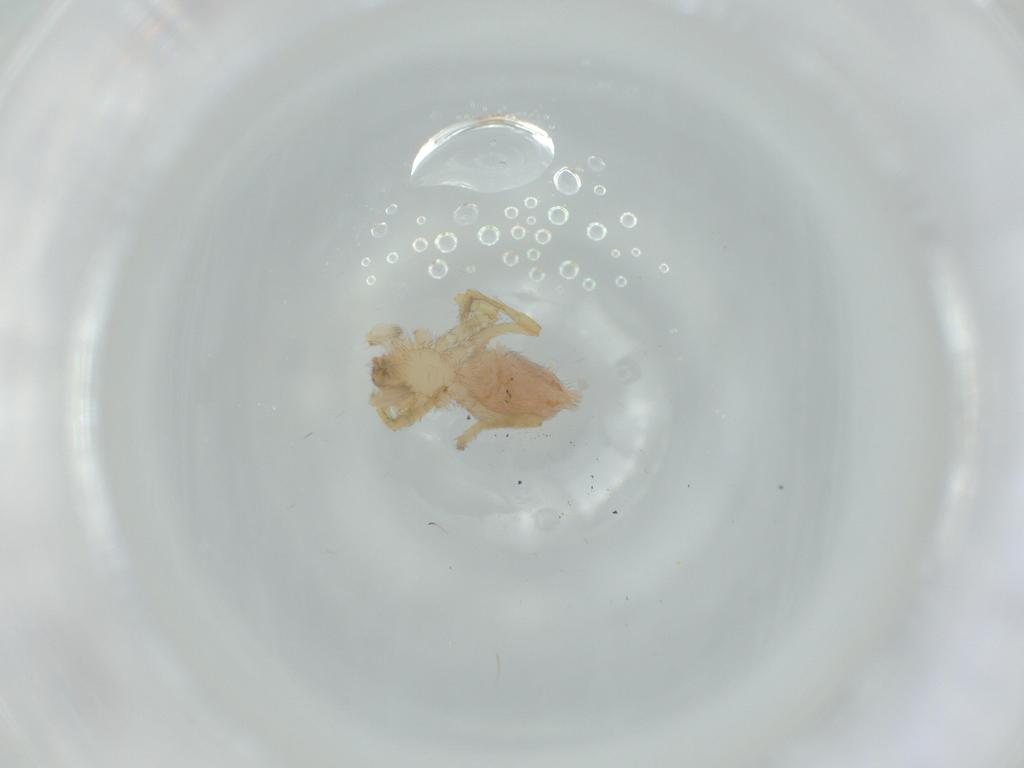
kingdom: Animalia
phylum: Arthropoda
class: Arachnida
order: Araneae
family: Oonopidae
